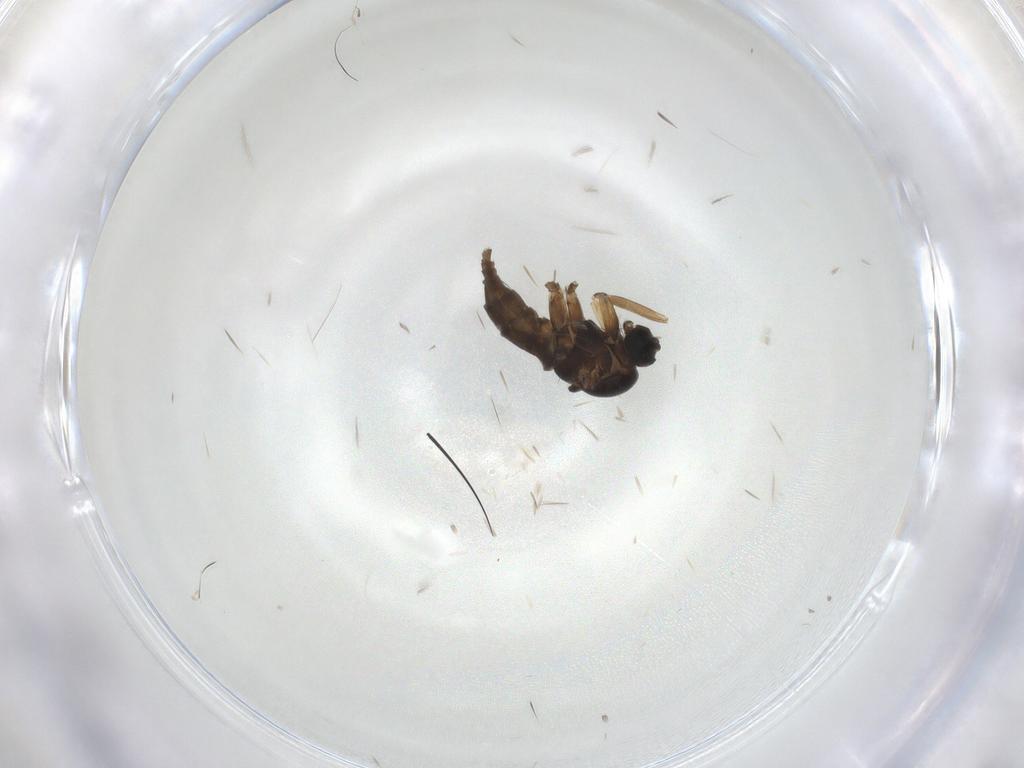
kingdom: Animalia
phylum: Arthropoda
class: Insecta
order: Diptera
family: Sciaridae
